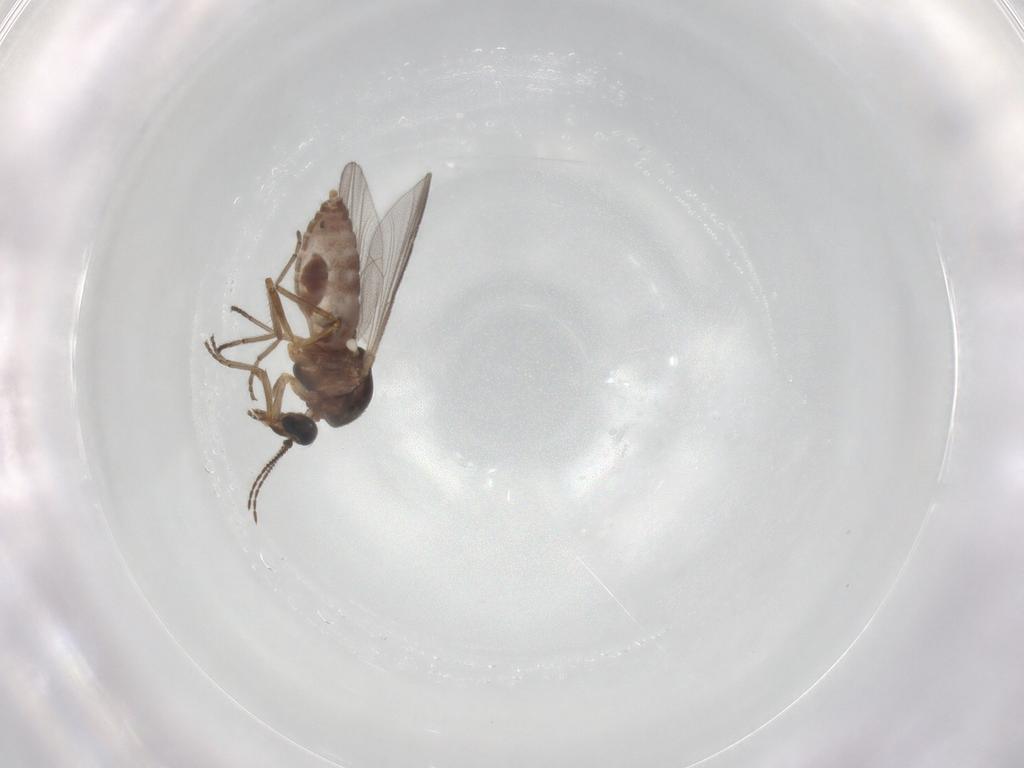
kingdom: Animalia
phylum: Arthropoda
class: Insecta
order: Diptera
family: Ceratopogonidae
